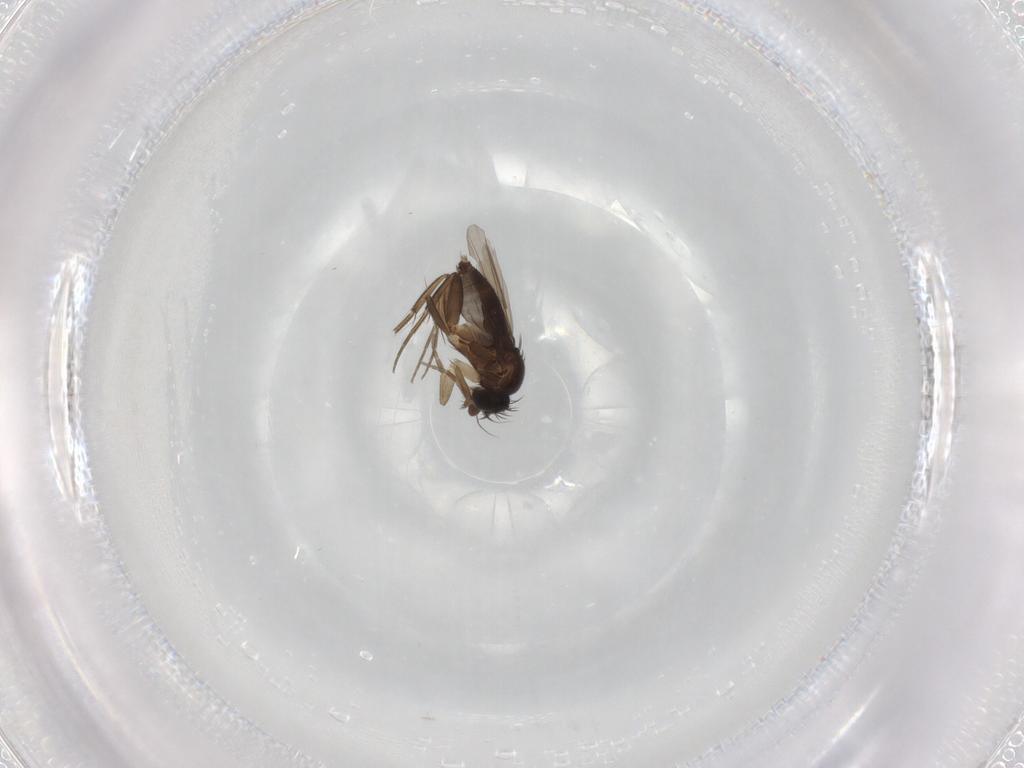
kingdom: Animalia
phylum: Arthropoda
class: Insecta
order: Diptera
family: Phoridae
